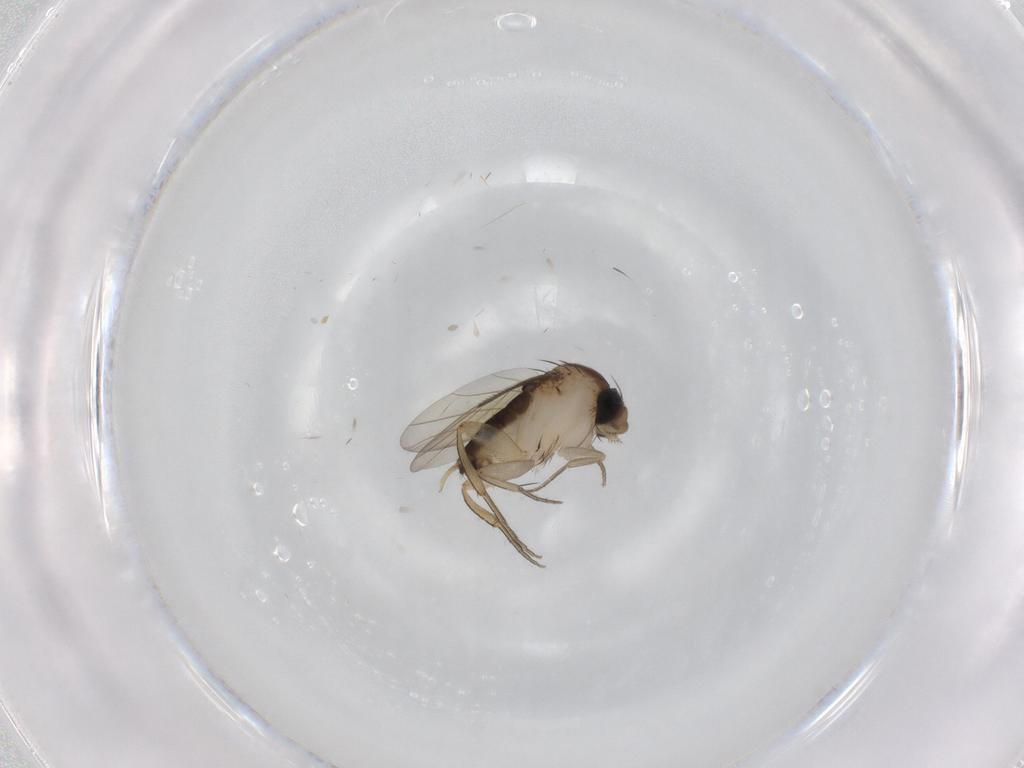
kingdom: Animalia
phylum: Arthropoda
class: Insecta
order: Diptera
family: Phoridae
